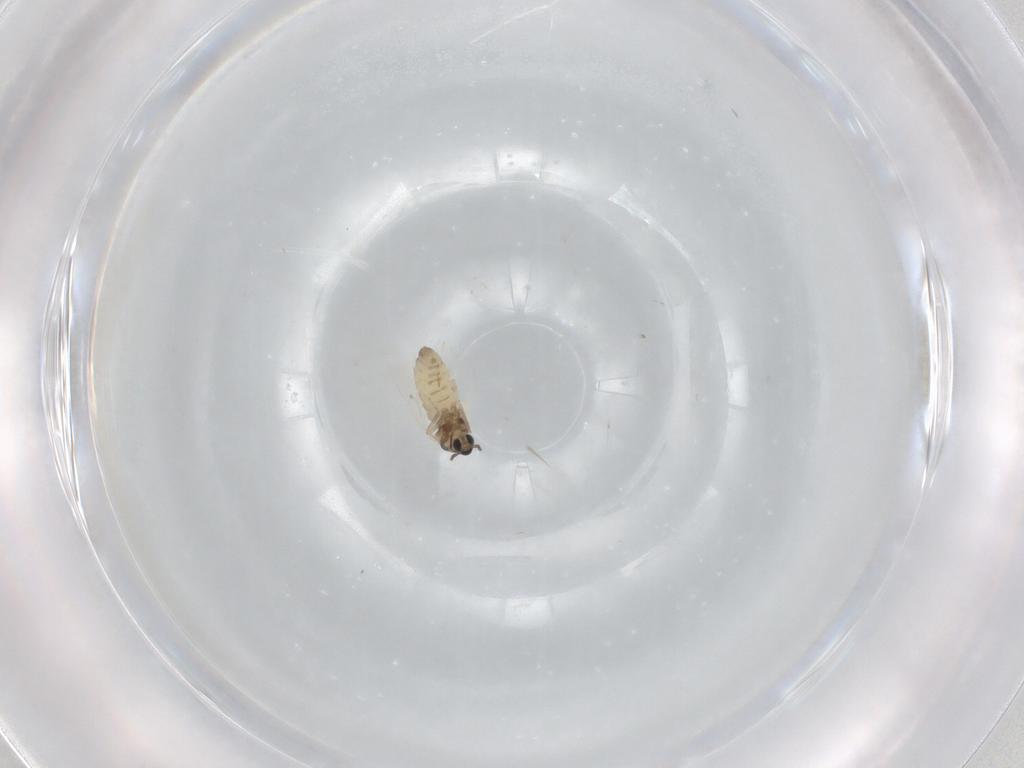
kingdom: Animalia
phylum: Arthropoda
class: Insecta
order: Diptera
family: Cecidomyiidae
